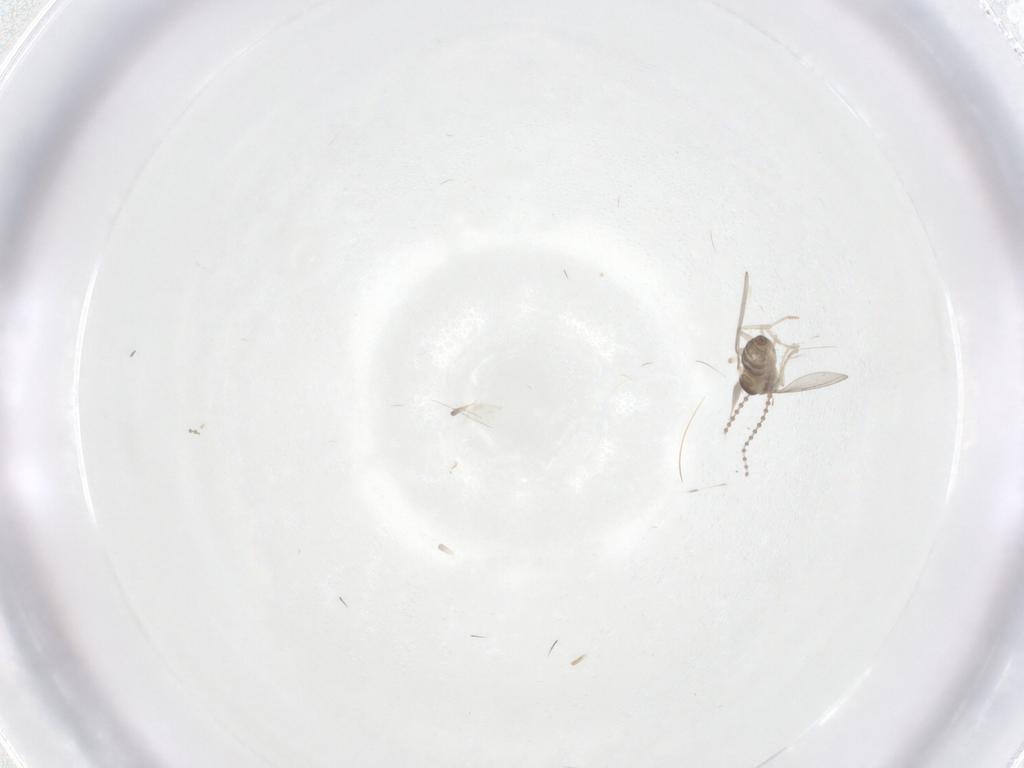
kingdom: Animalia
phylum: Arthropoda
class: Insecta
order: Diptera
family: Cecidomyiidae
